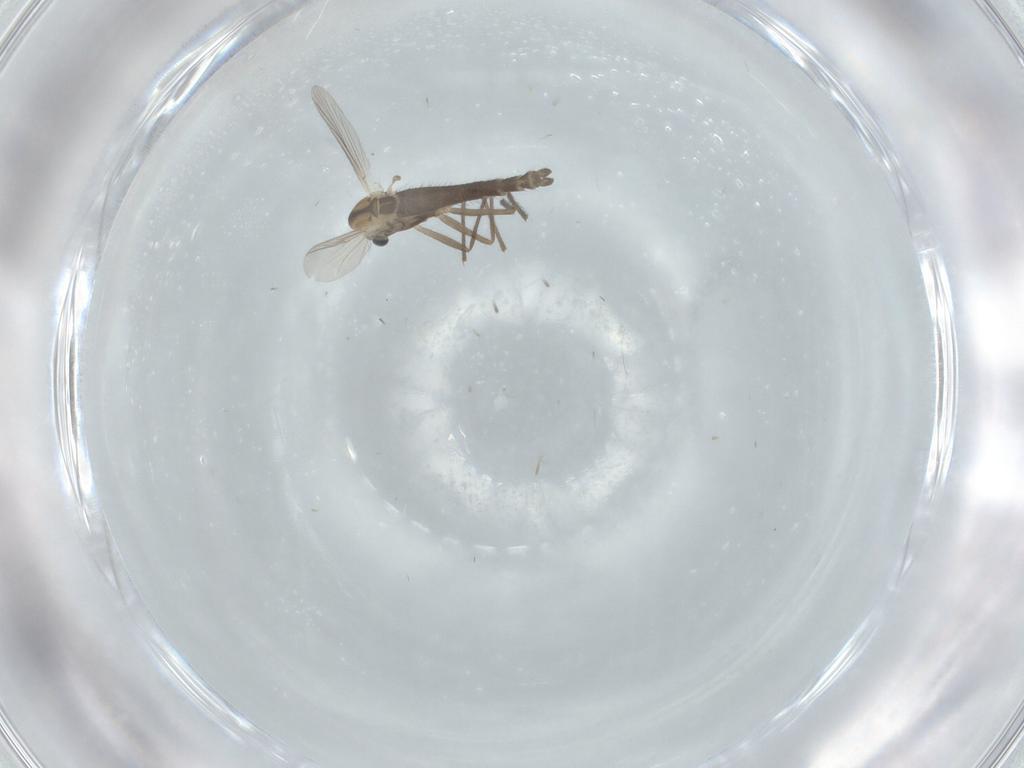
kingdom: Animalia
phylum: Arthropoda
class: Insecta
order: Diptera
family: Chironomidae
